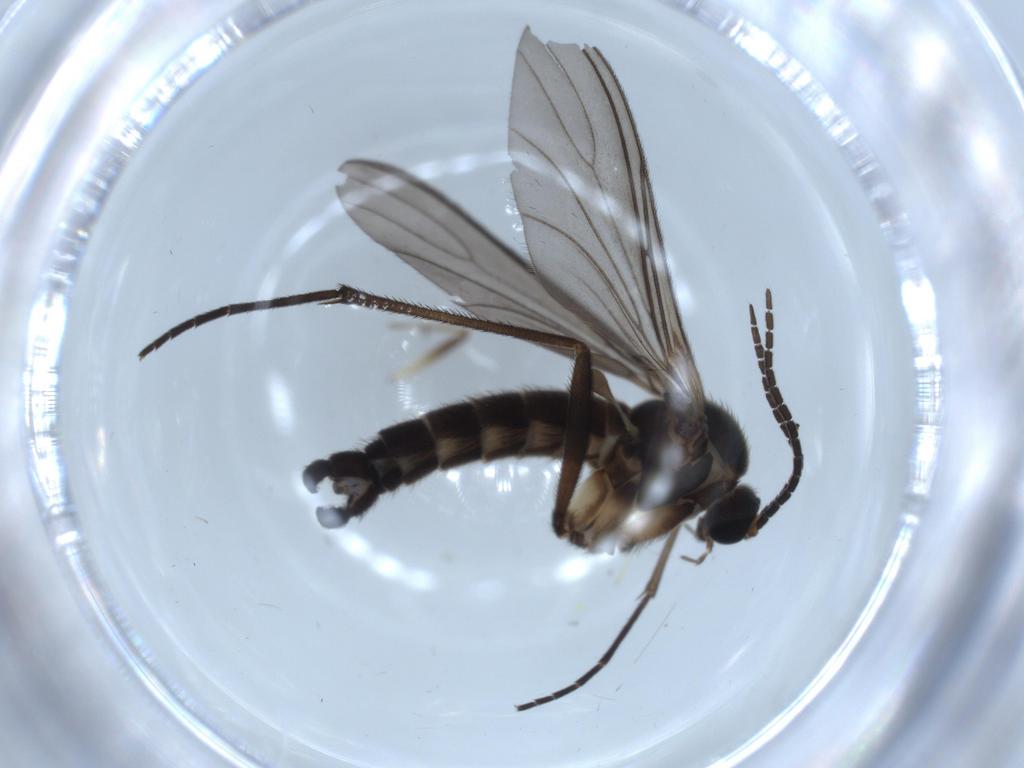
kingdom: Animalia
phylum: Arthropoda
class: Insecta
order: Diptera
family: Sciaridae
